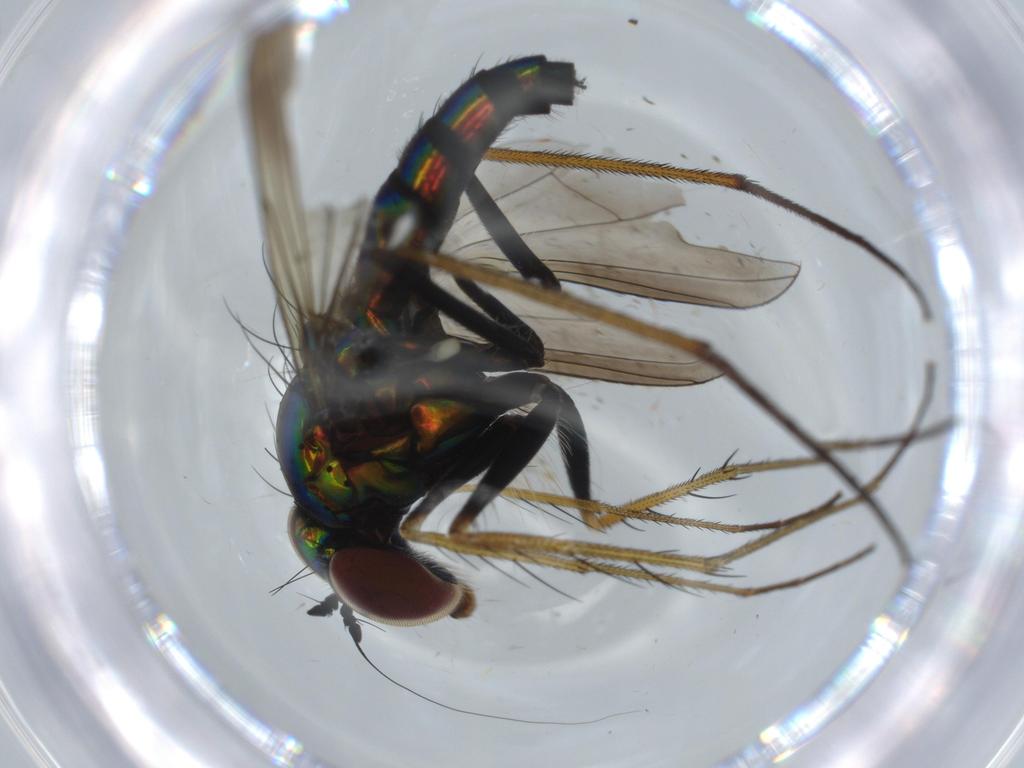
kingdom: Animalia
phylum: Arthropoda
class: Insecta
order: Diptera
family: Dolichopodidae
